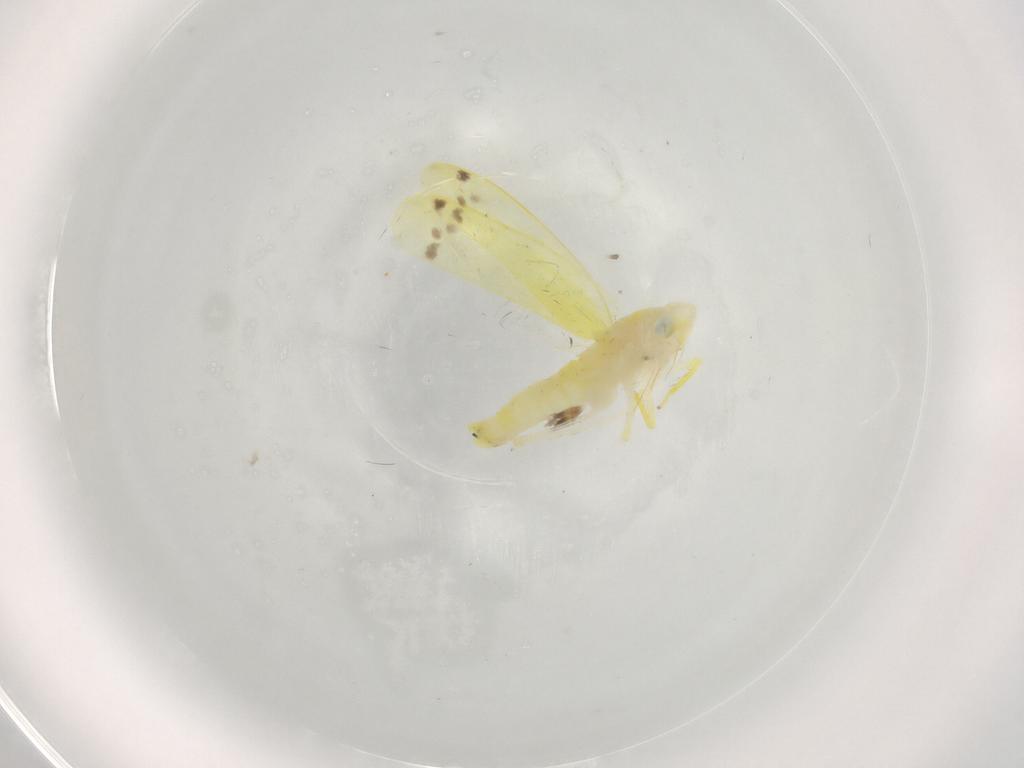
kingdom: Animalia
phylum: Arthropoda
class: Insecta
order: Hemiptera
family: Cicadellidae
